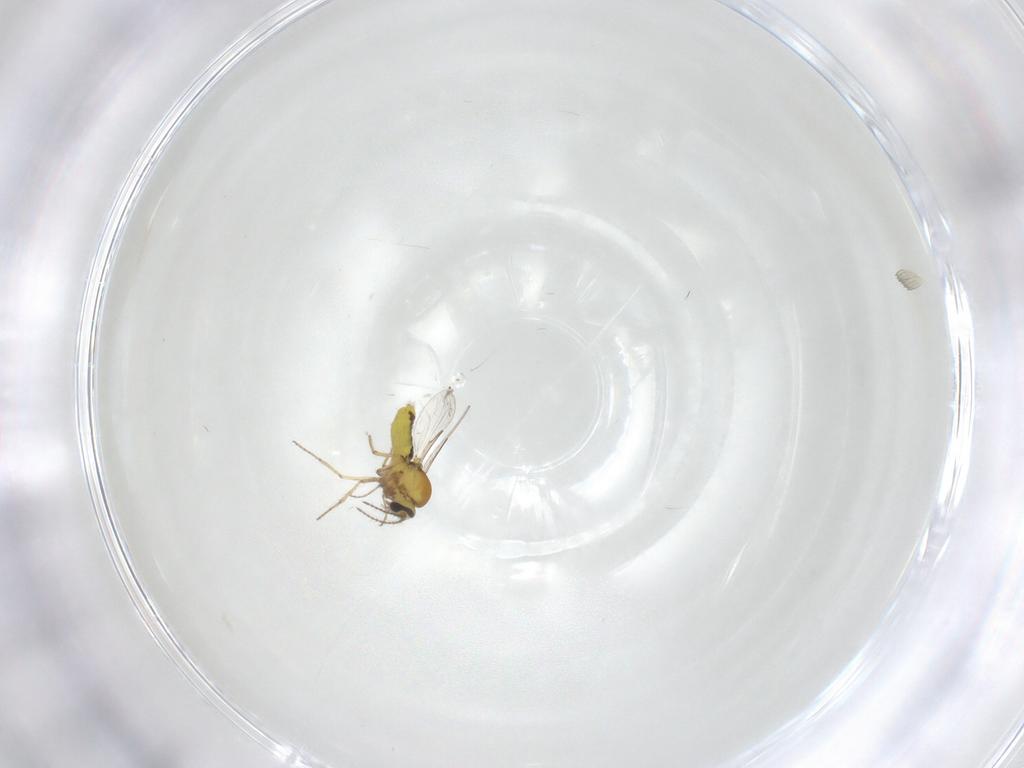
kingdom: Animalia
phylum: Arthropoda
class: Insecta
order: Diptera
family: Ceratopogonidae
